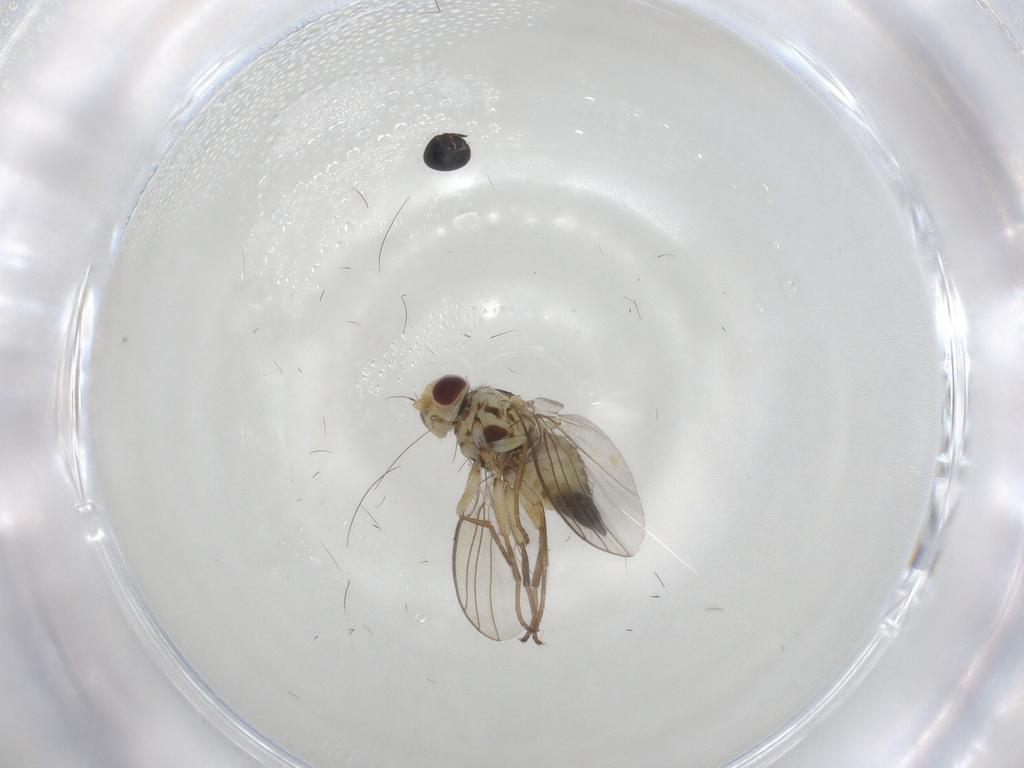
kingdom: Animalia
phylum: Arthropoda
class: Insecta
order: Diptera
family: Agromyzidae
